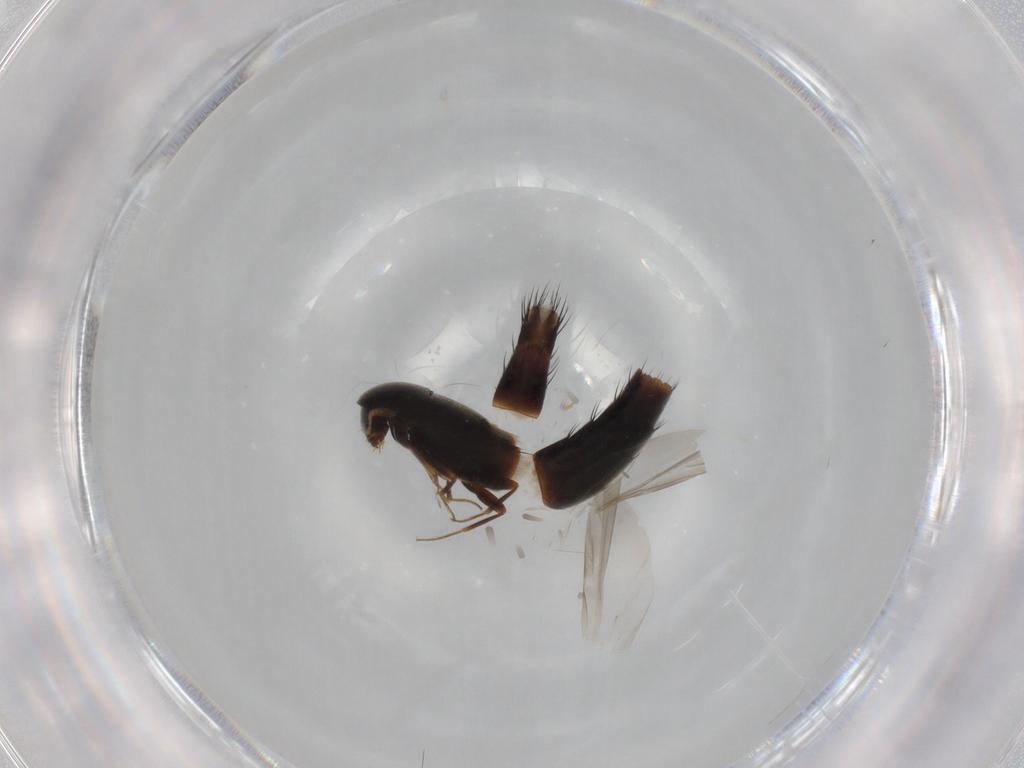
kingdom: Animalia
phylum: Arthropoda
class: Insecta
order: Coleoptera
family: Staphylinidae
